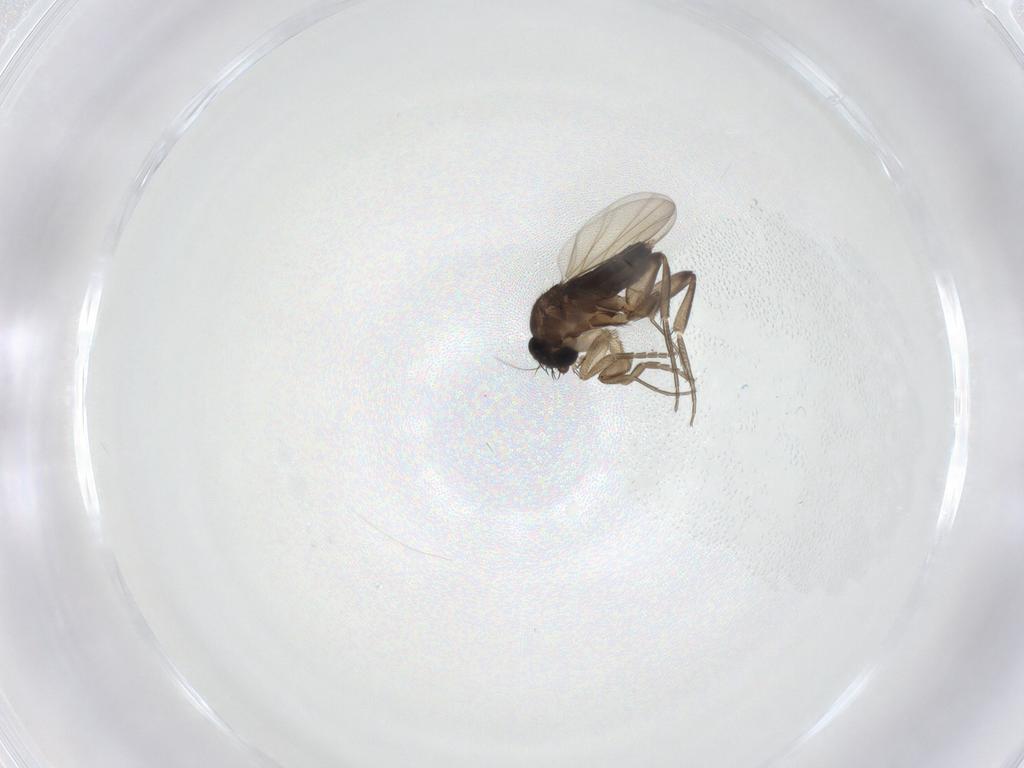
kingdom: Animalia
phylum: Arthropoda
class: Insecta
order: Diptera
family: Phoridae
